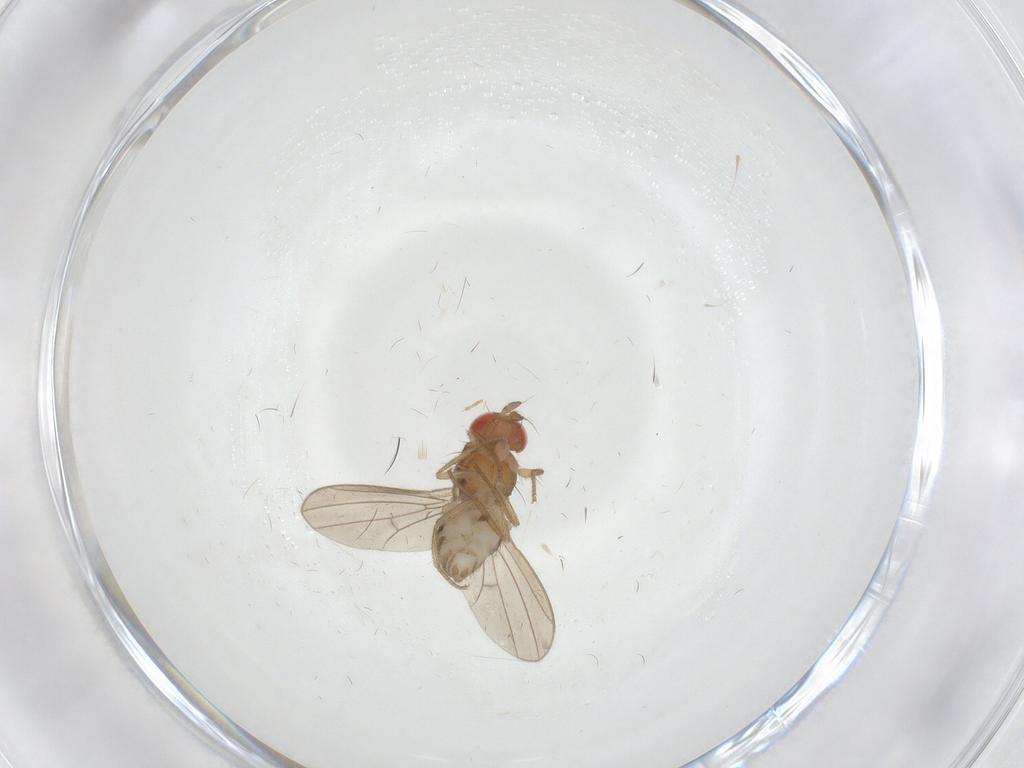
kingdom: Animalia
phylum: Arthropoda
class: Insecta
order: Diptera
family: Drosophilidae
